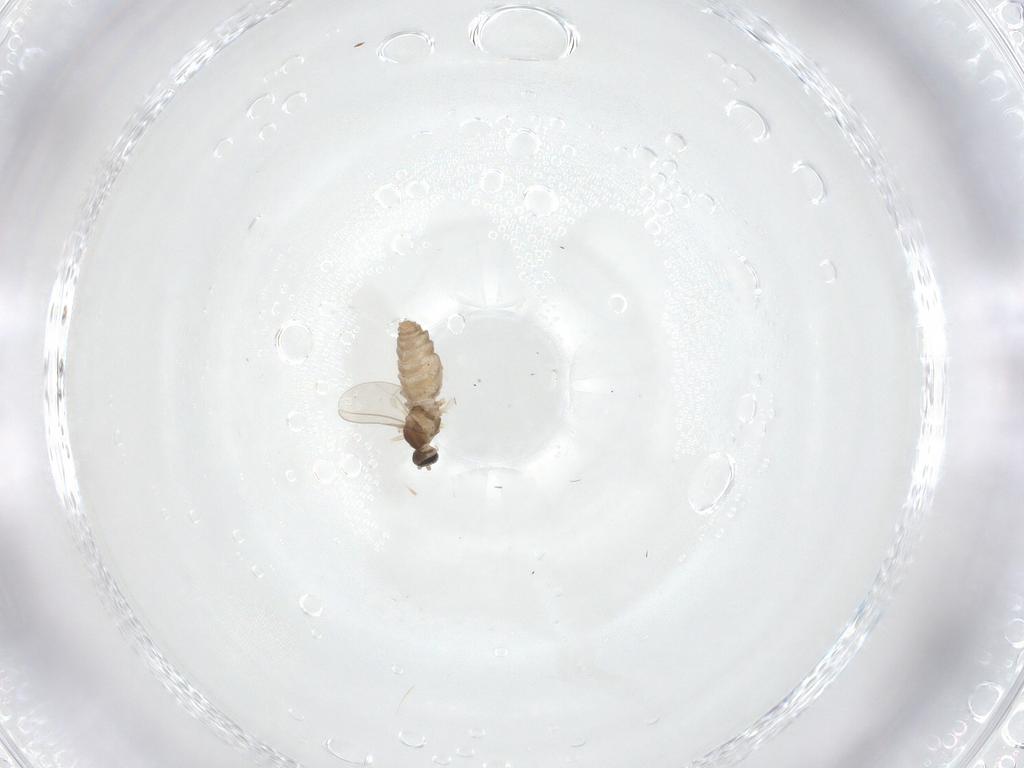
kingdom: Animalia
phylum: Arthropoda
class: Insecta
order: Diptera
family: Cecidomyiidae
